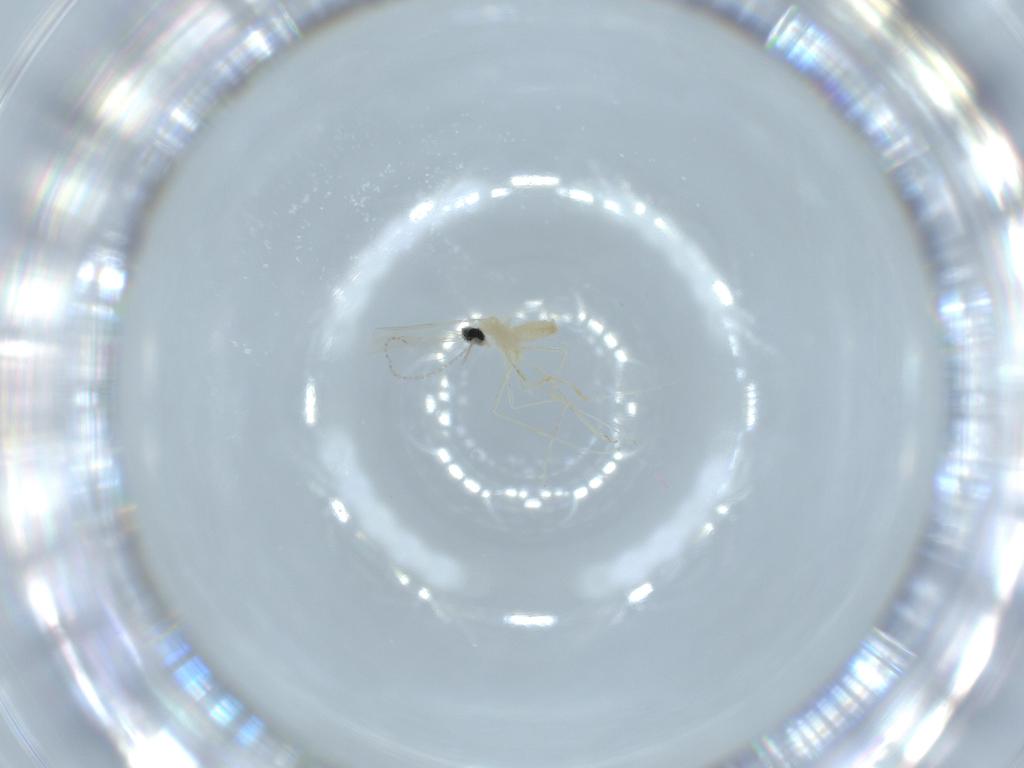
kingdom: Animalia
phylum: Arthropoda
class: Insecta
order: Diptera
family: Cecidomyiidae
